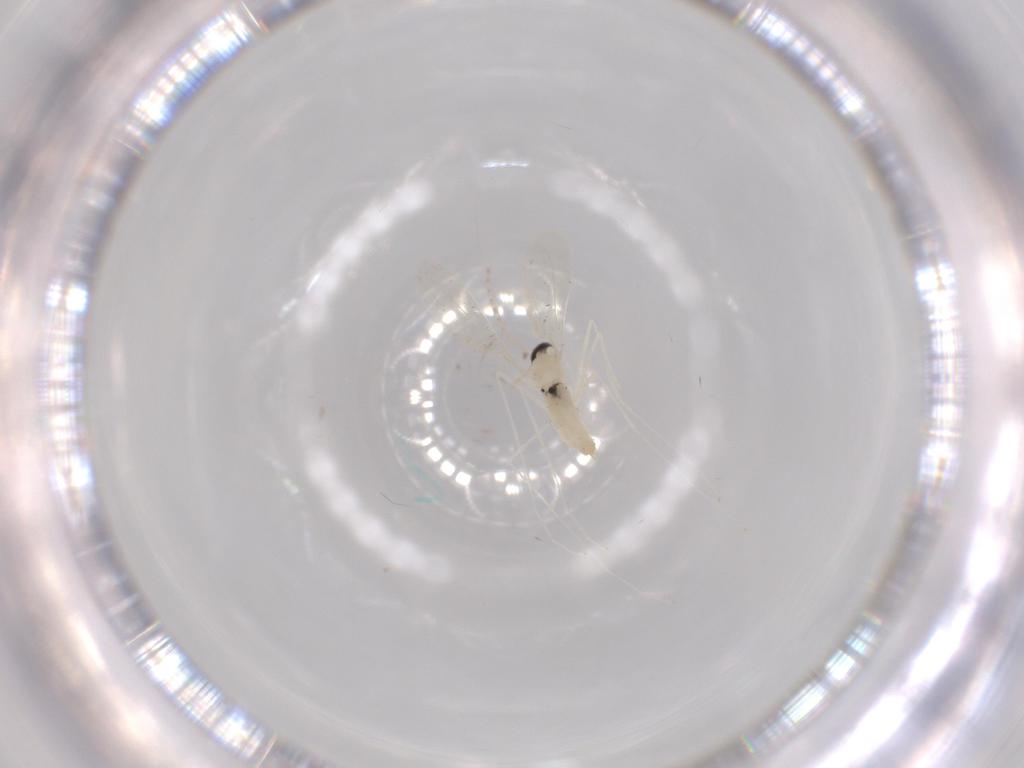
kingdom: Animalia
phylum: Arthropoda
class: Insecta
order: Diptera
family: Cecidomyiidae
